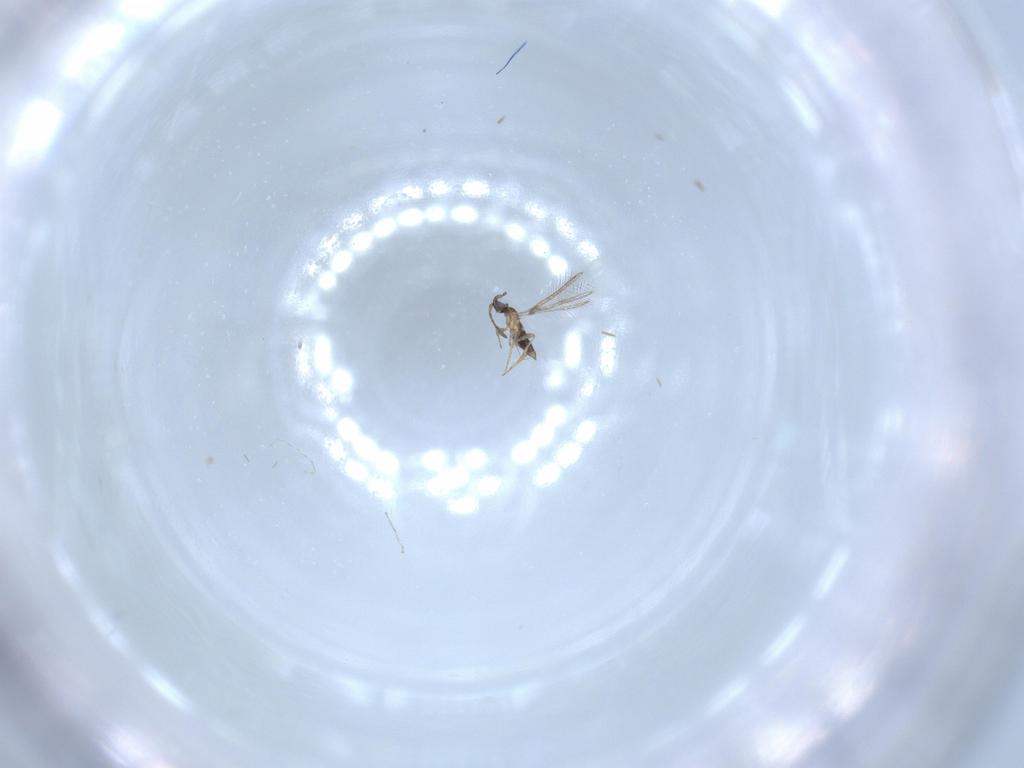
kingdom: Animalia
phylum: Arthropoda
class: Insecta
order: Hymenoptera
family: Formicidae
